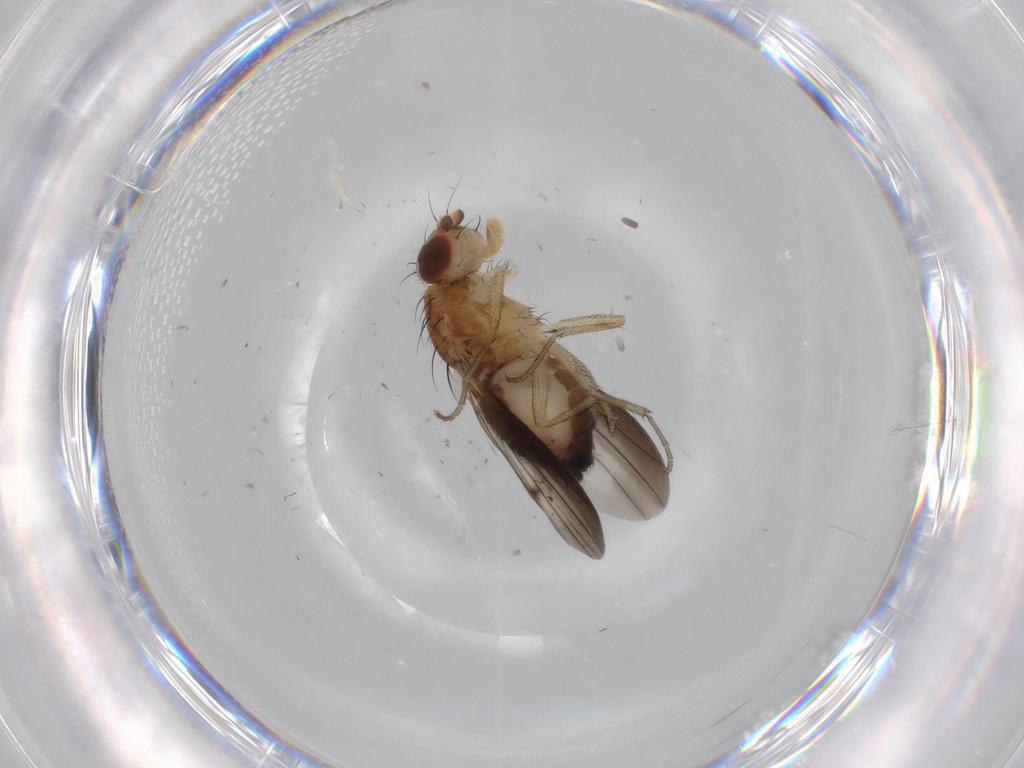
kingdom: Animalia
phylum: Arthropoda
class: Insecta
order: Diptera
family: Heleomyzidae
